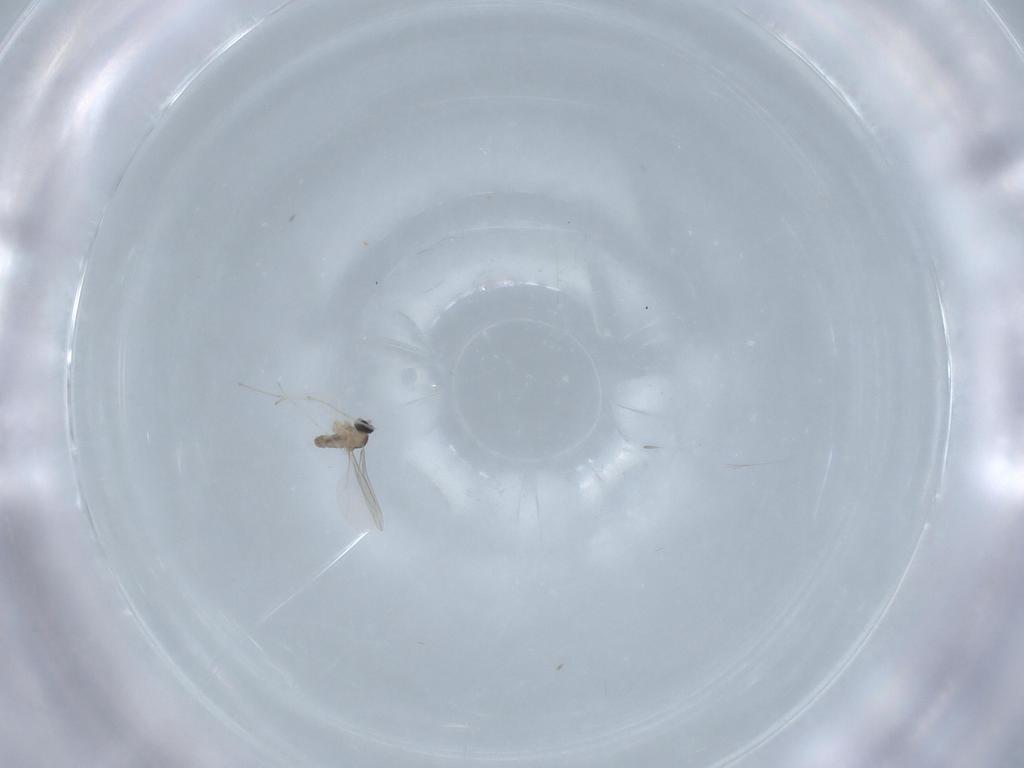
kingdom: Animalia
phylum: Arthropoda
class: Insecta
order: Diptera
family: Cecidomyiidae
